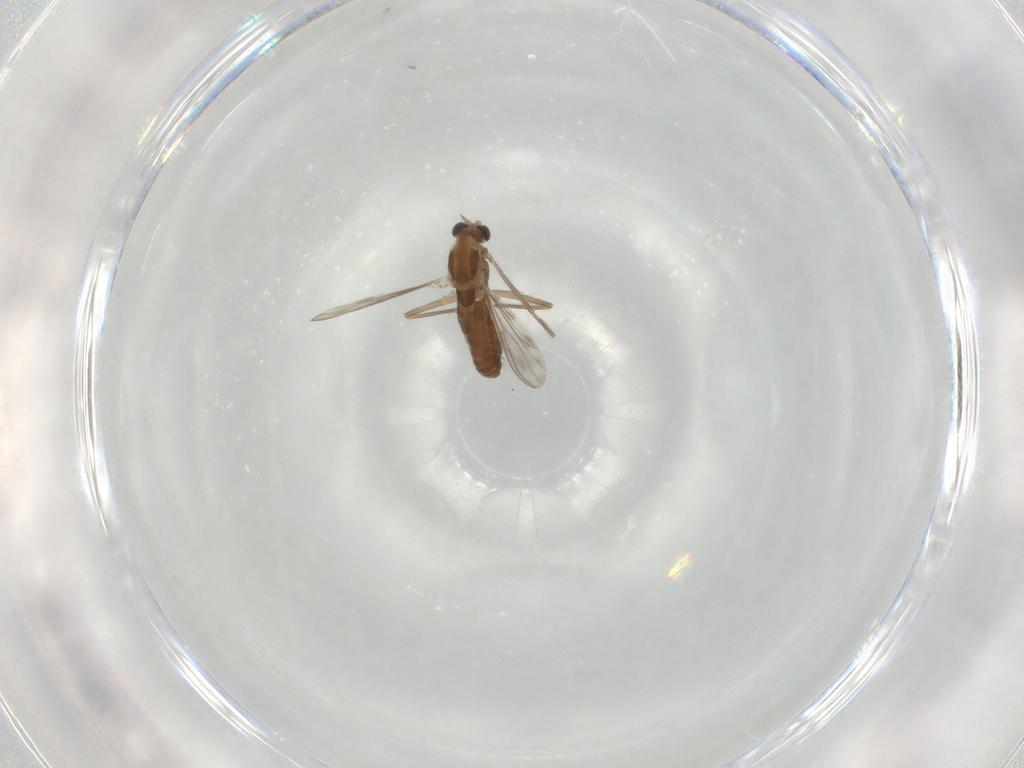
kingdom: Animalia
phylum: Arthropoda
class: Insecta
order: Diptera
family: Chironomidae
